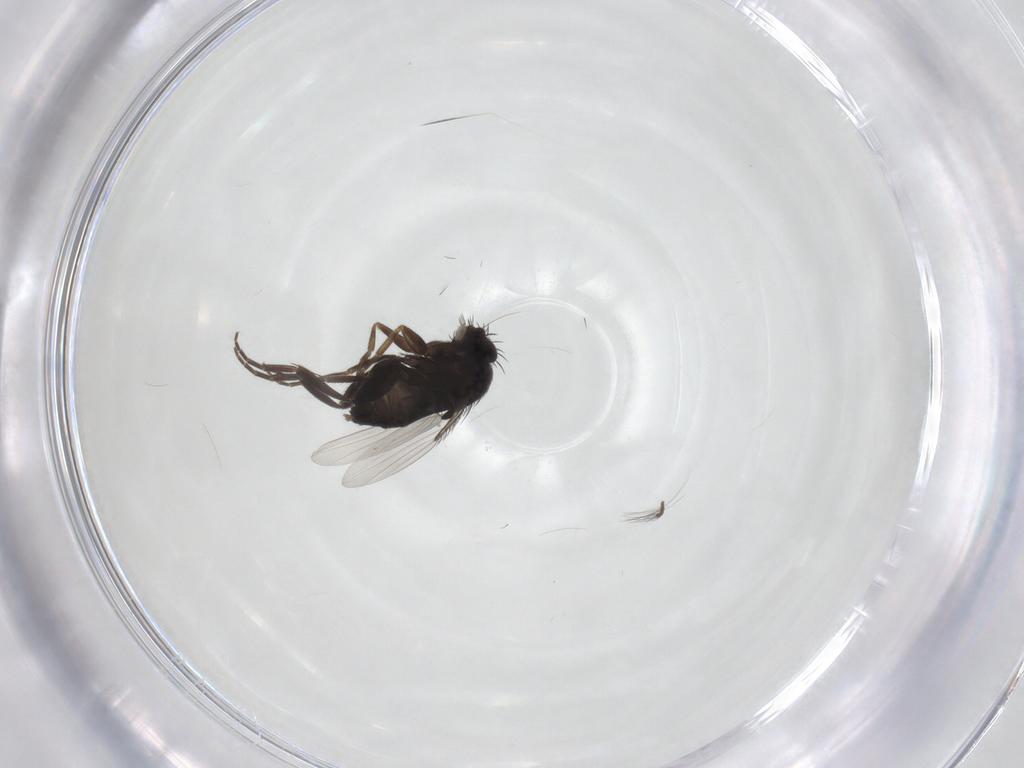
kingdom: Animalia
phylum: Arthropoda
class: Insecta
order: Diptera
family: Phoridae
